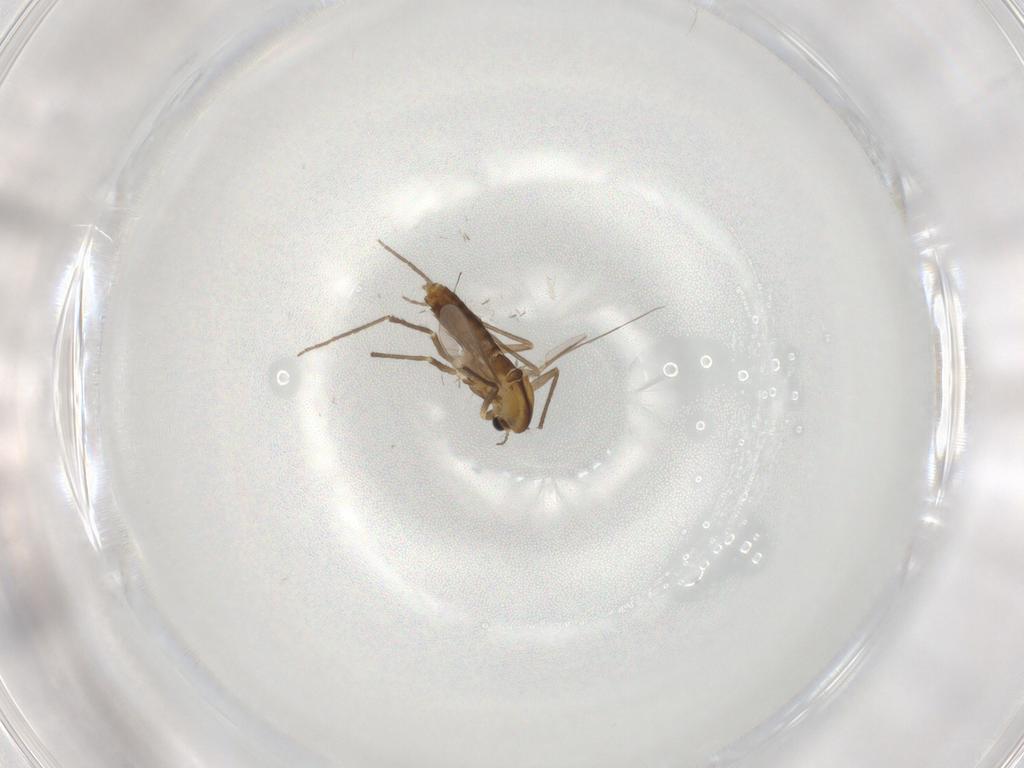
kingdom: Animalia
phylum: Arthropoda
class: Insecta
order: Diptera
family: Chironomidae
